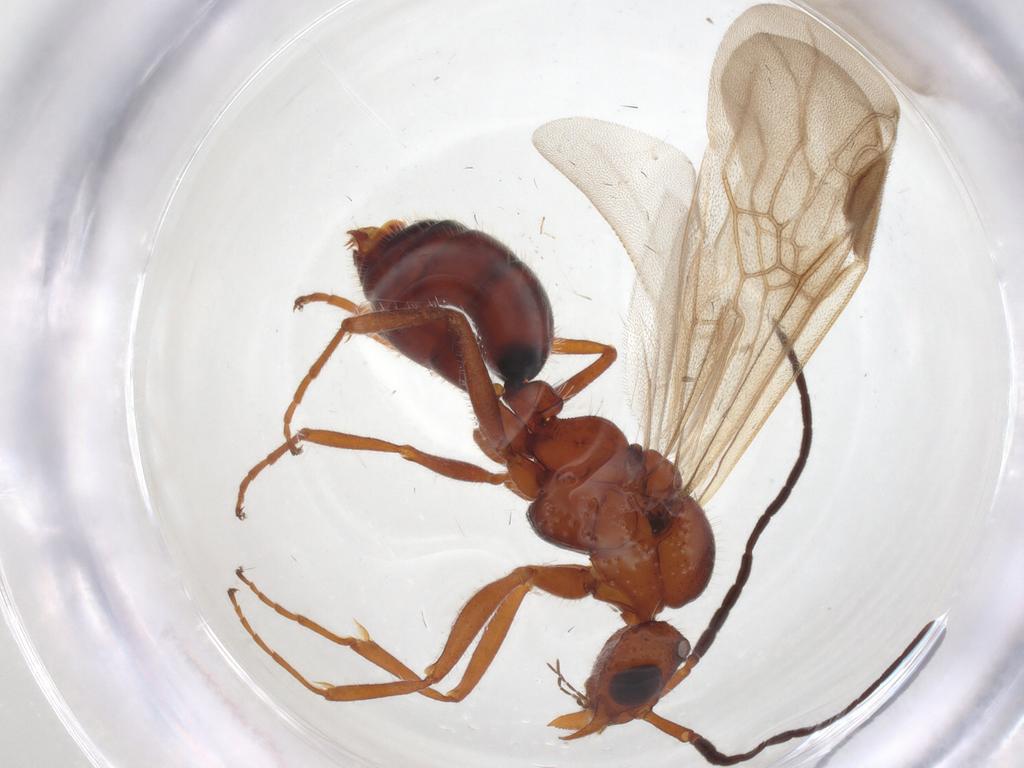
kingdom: Animalia
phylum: Arthropoda
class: Insecta
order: Hymenoptera
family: Formicidae
